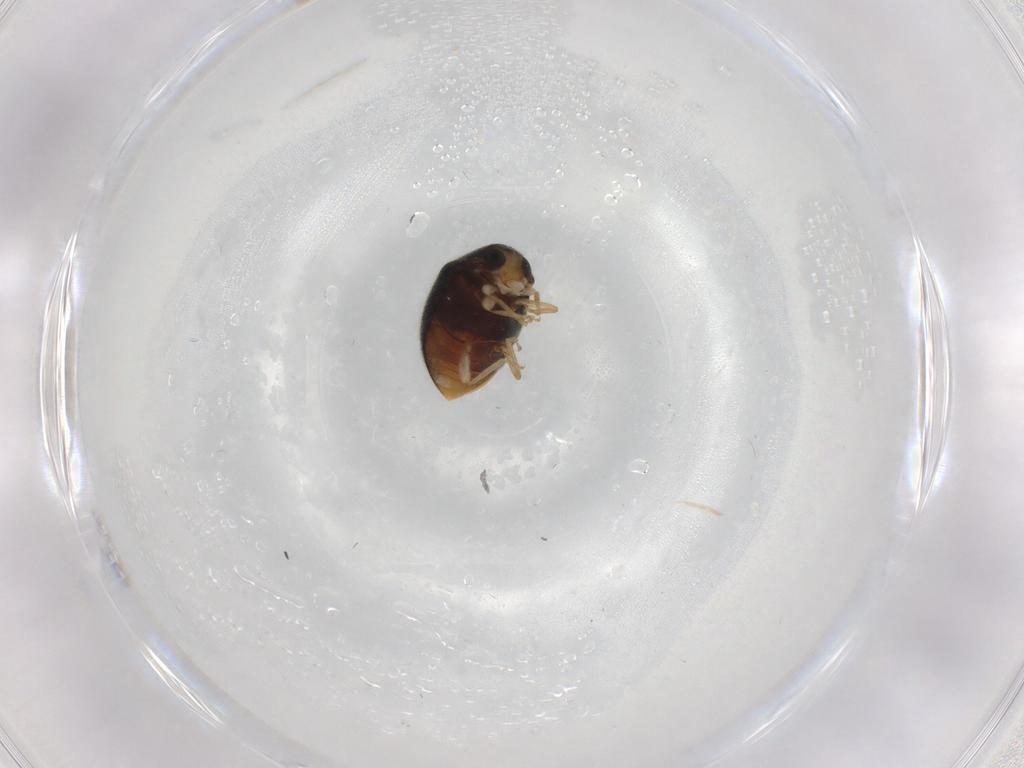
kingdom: Animalia
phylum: Arthropoda
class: Insecta
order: Coleoptera
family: Coccinellidae
